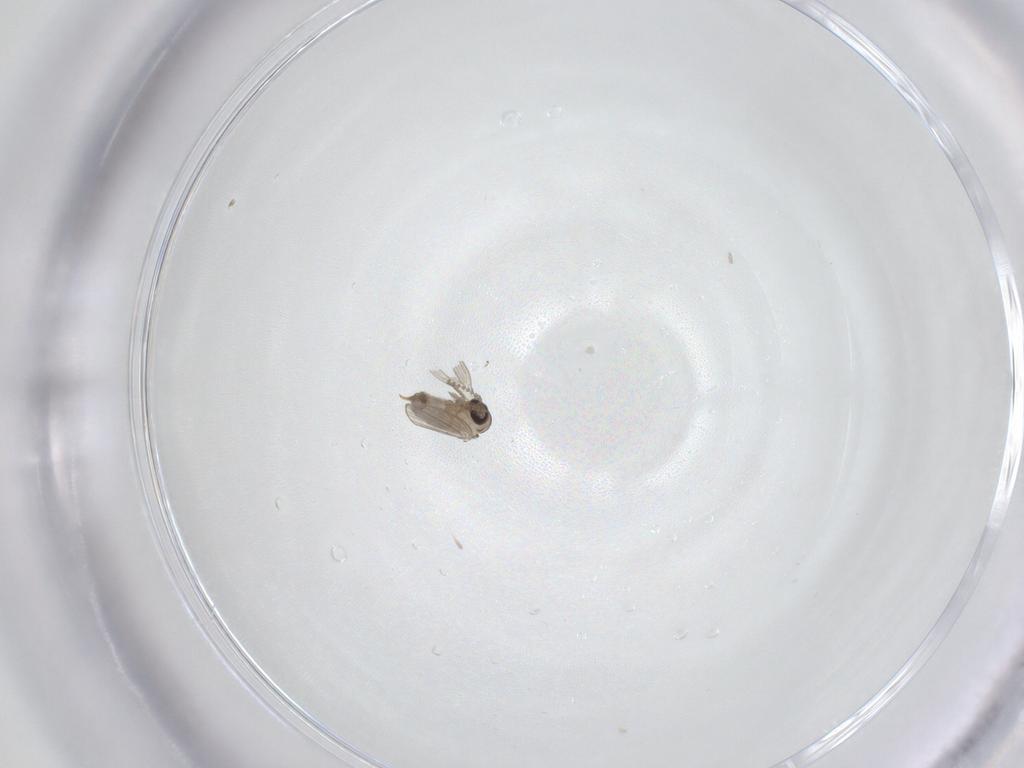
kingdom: Animalia
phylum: Arthropoda
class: Insecta
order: Diptera
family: Psychodidae
